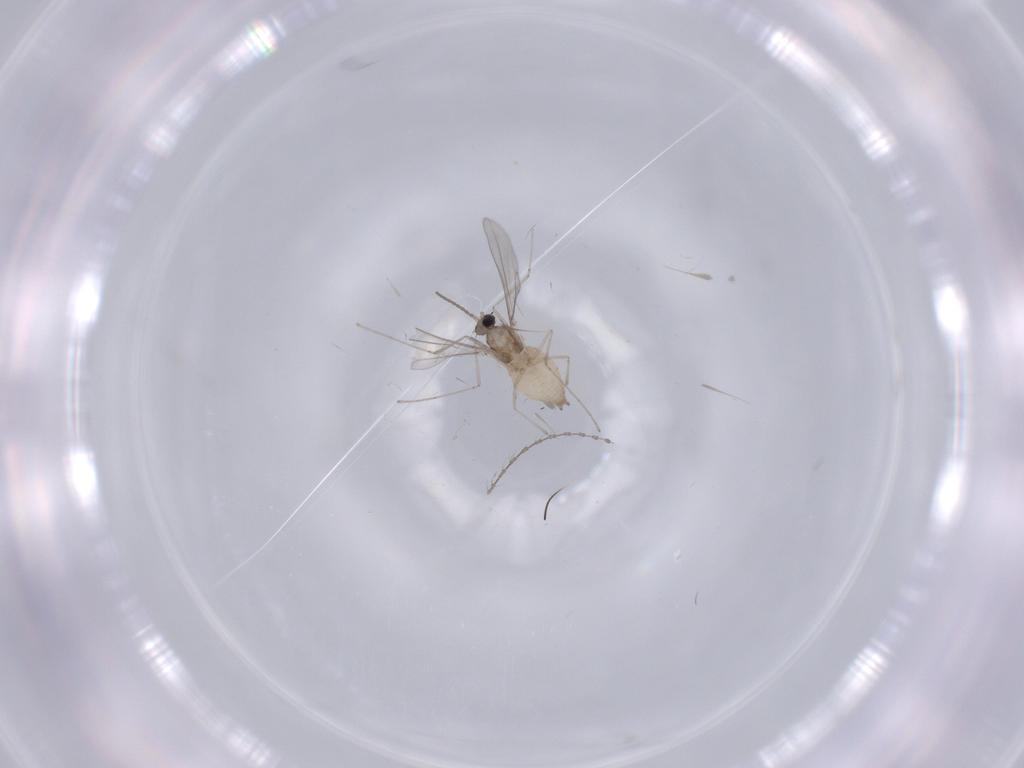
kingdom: Animalia
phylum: Arthropoda
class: Insecta
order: Diptera
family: Cecidomyiidae
